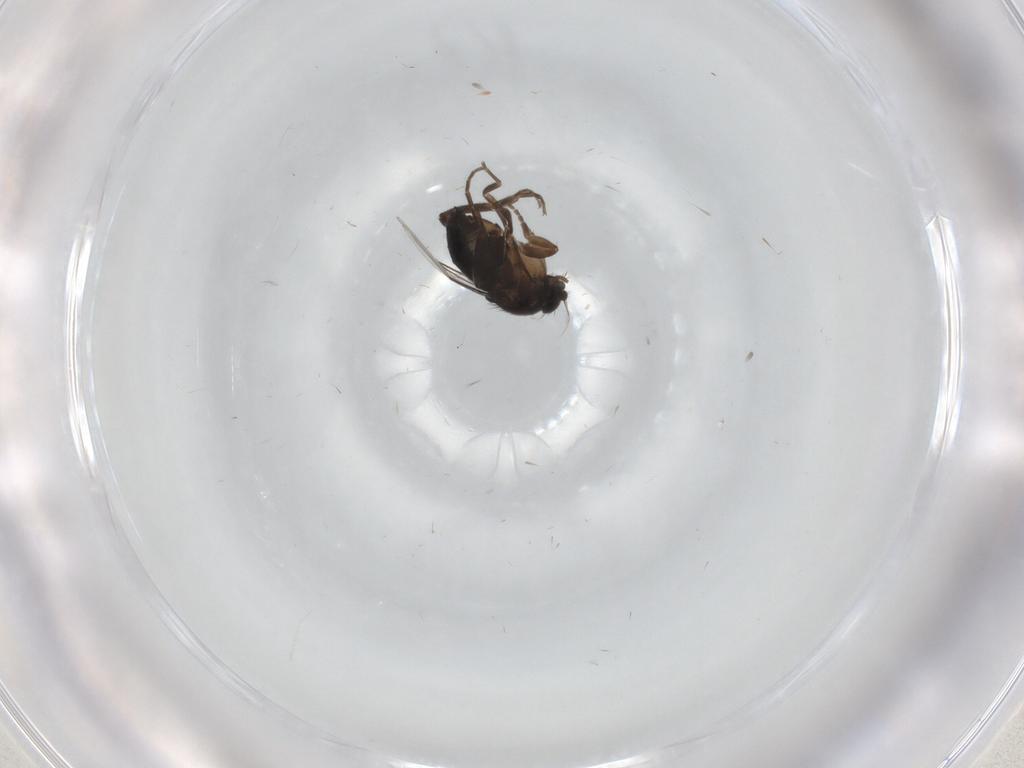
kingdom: Animalia
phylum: Arthropoda
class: Insecta
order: Diptera
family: Phoridae
